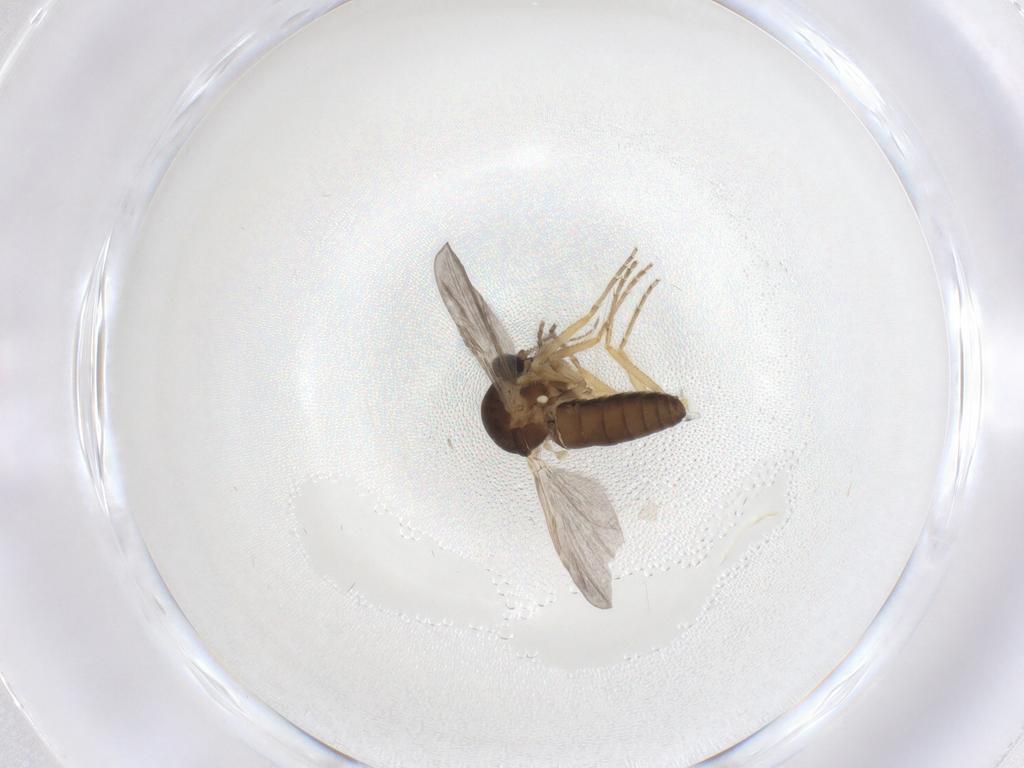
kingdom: Animalia
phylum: Arthropoda
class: Insecta
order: Diptera
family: Ceratopogonidae
